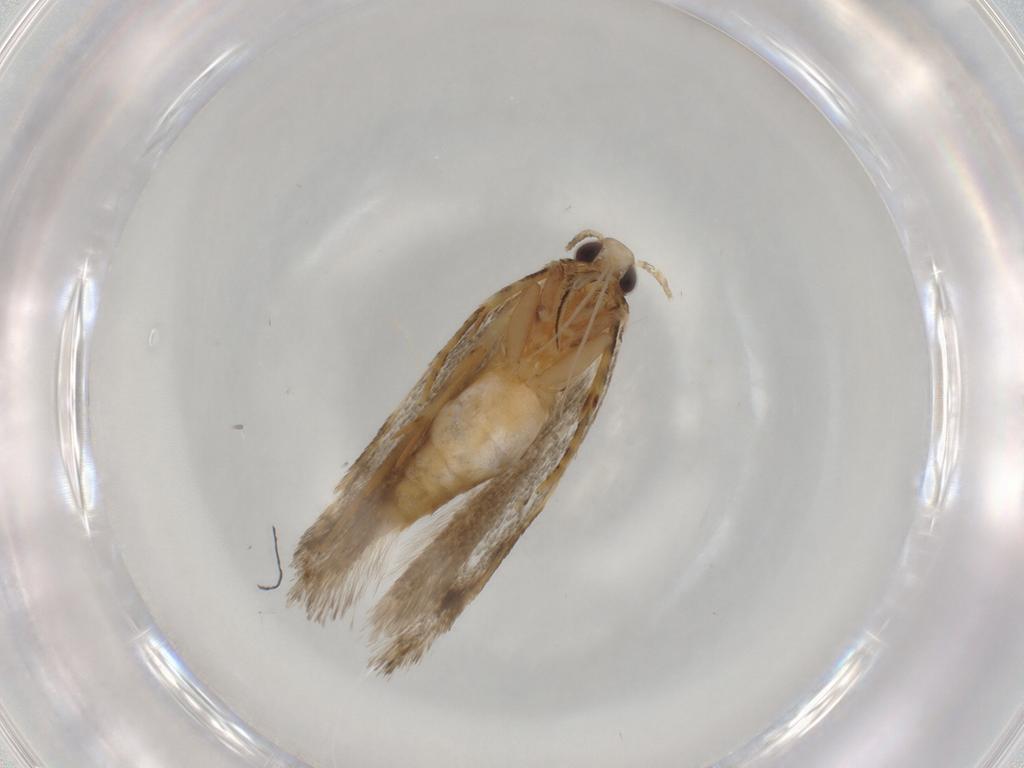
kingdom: Animalia
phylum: Arthropoda
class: Insecta
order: Lepidoptera
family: Autostichidae
